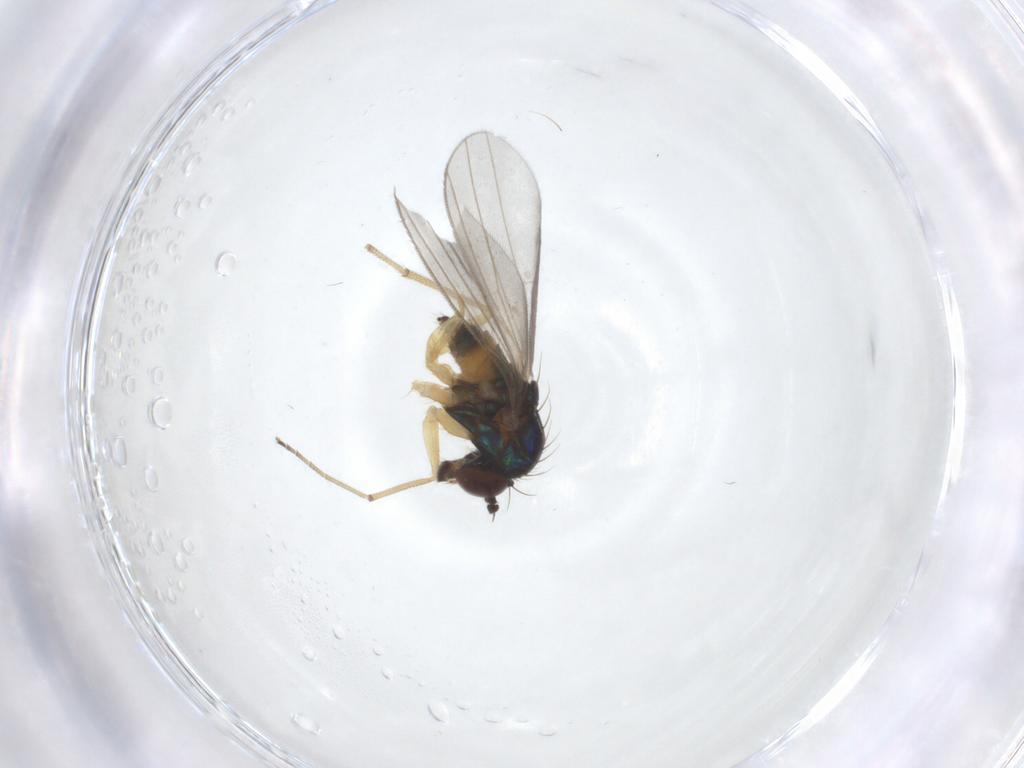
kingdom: Animalia
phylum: Arthropoda
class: Insecta
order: Diptera
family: Dolichopodidae
